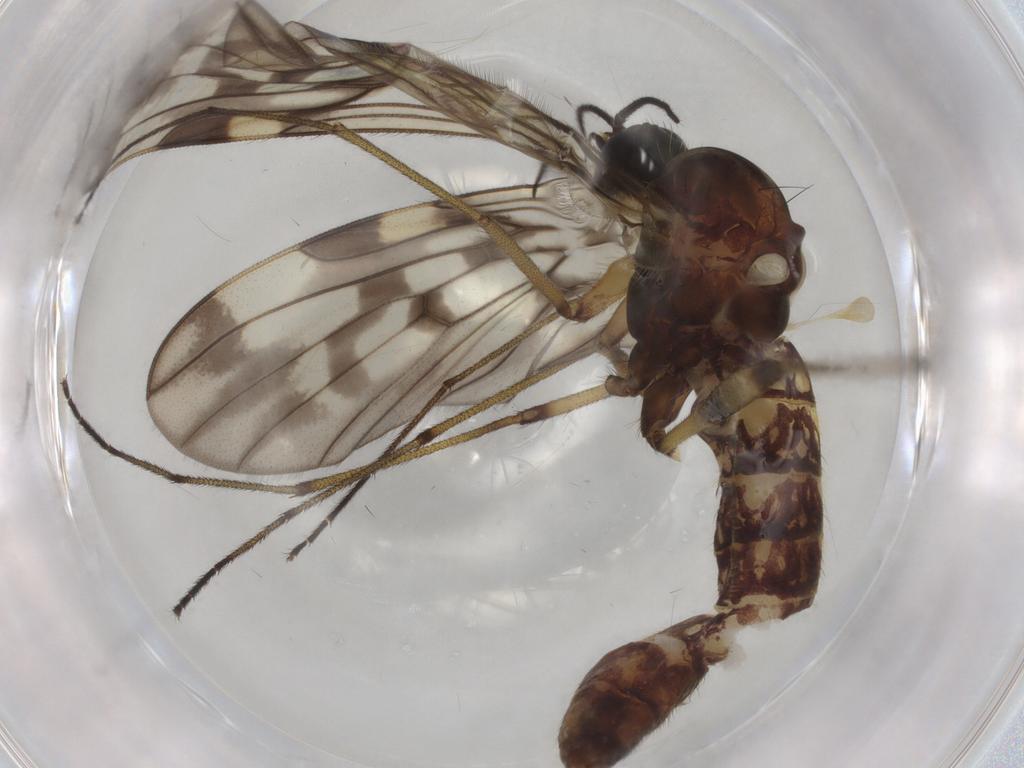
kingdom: Animalia
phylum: Arthropoda
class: Insecta
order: Diptera
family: Sciaridae
